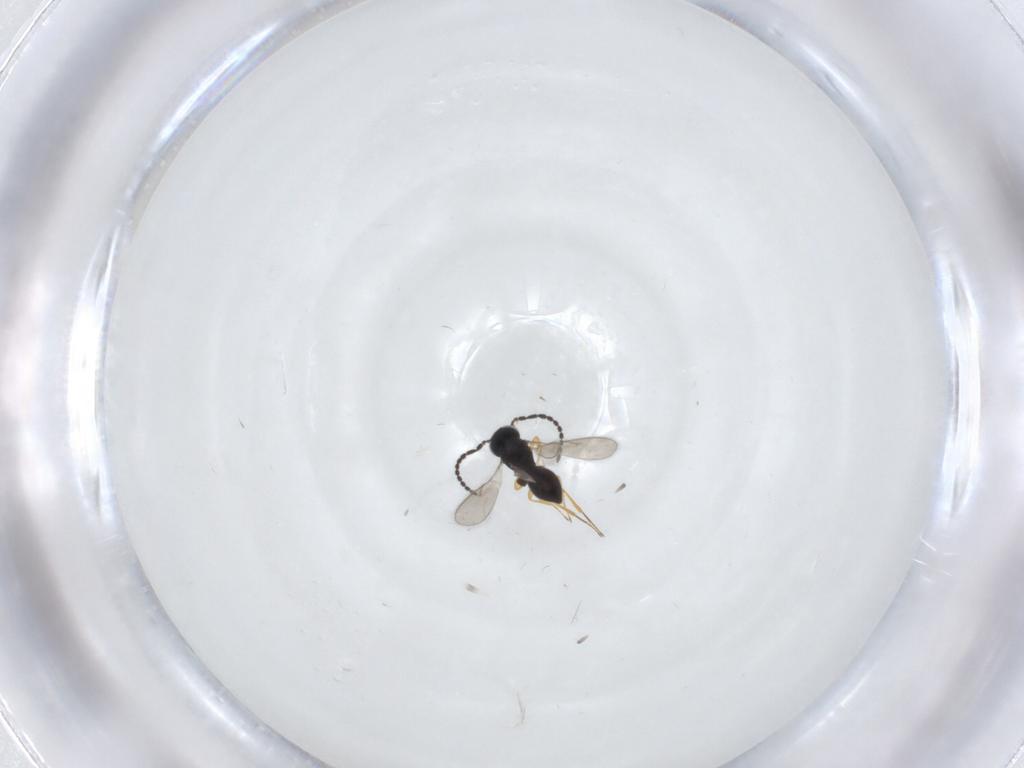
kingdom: Animalia
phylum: Arthropoda
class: Insecta
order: Hymenoptera
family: Scelionidae
